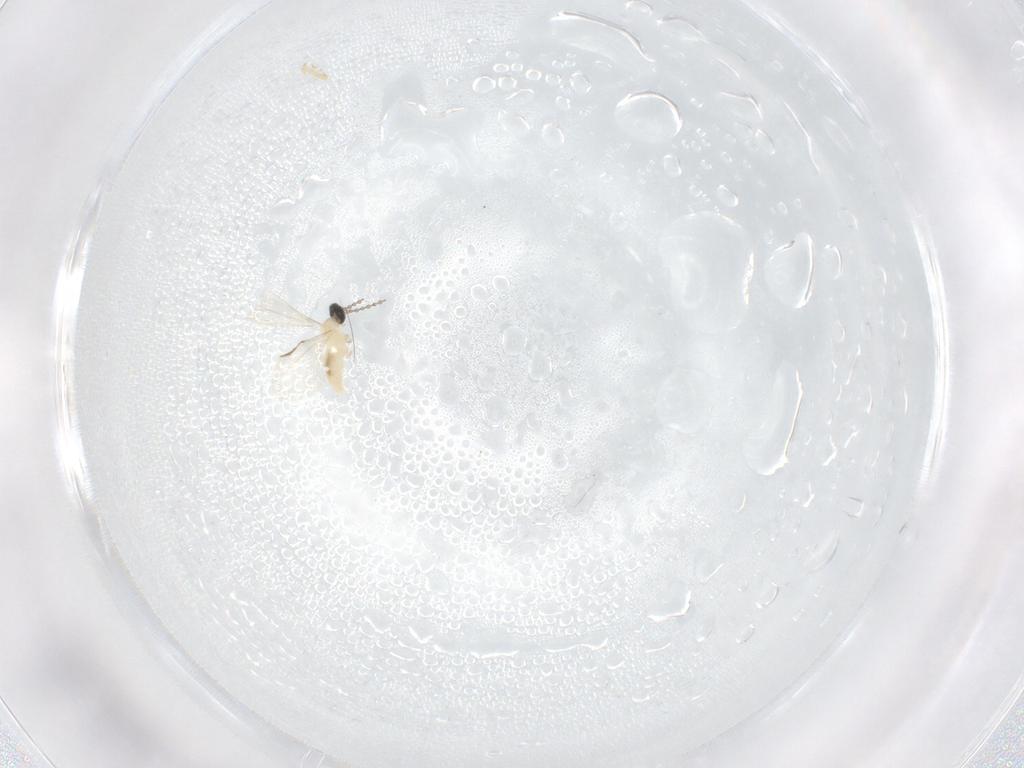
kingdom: Animalia
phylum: Arthropoda
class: Insecta
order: Diptera
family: Cecidomyiidae
